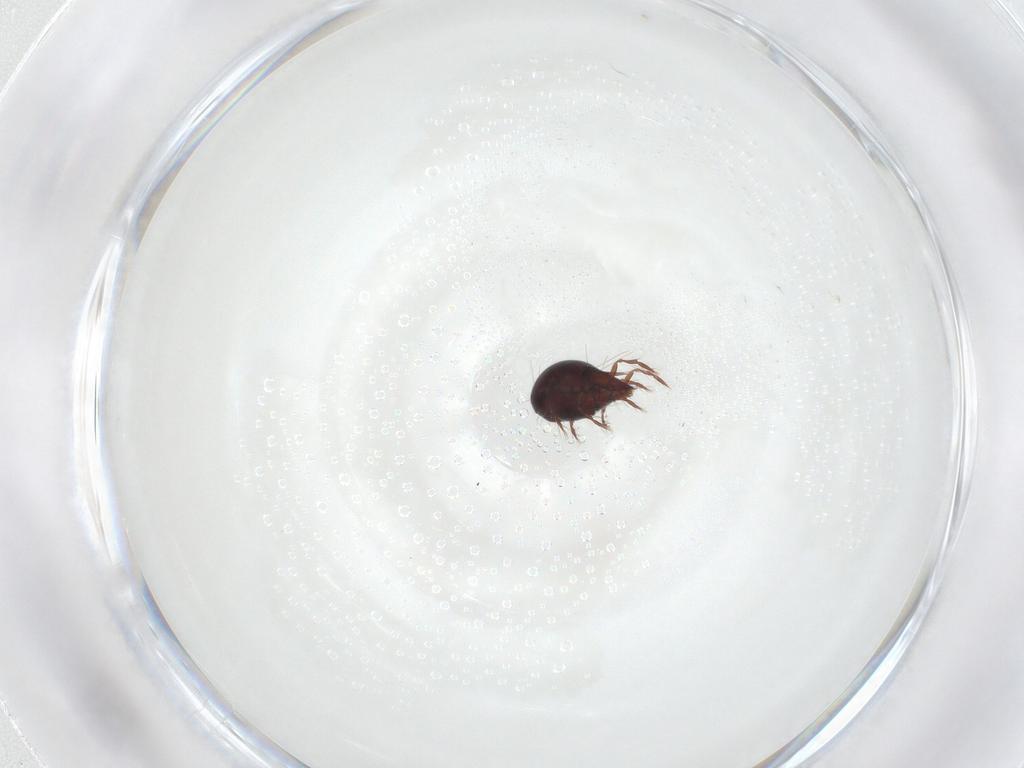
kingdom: Animalia
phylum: Arthropoda
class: Arachnida
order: Sarcoptiformes
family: Ceratoppiidae
